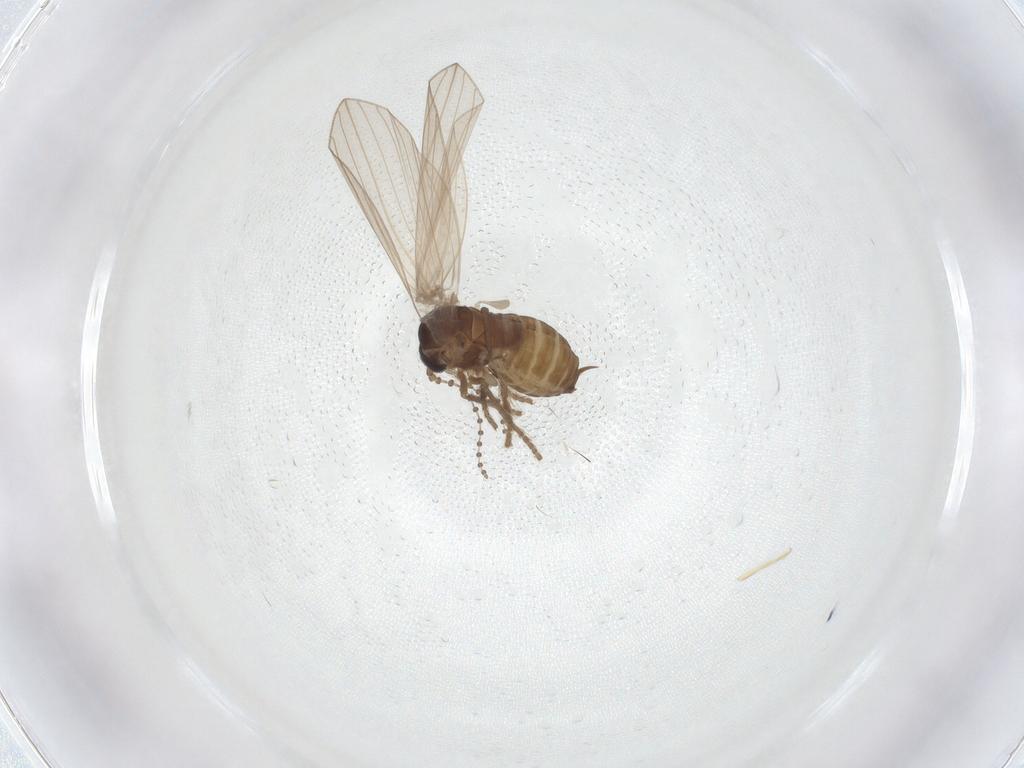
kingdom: Animalia
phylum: Arthropoda
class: Insecta
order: Diptera
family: Psychodidae
